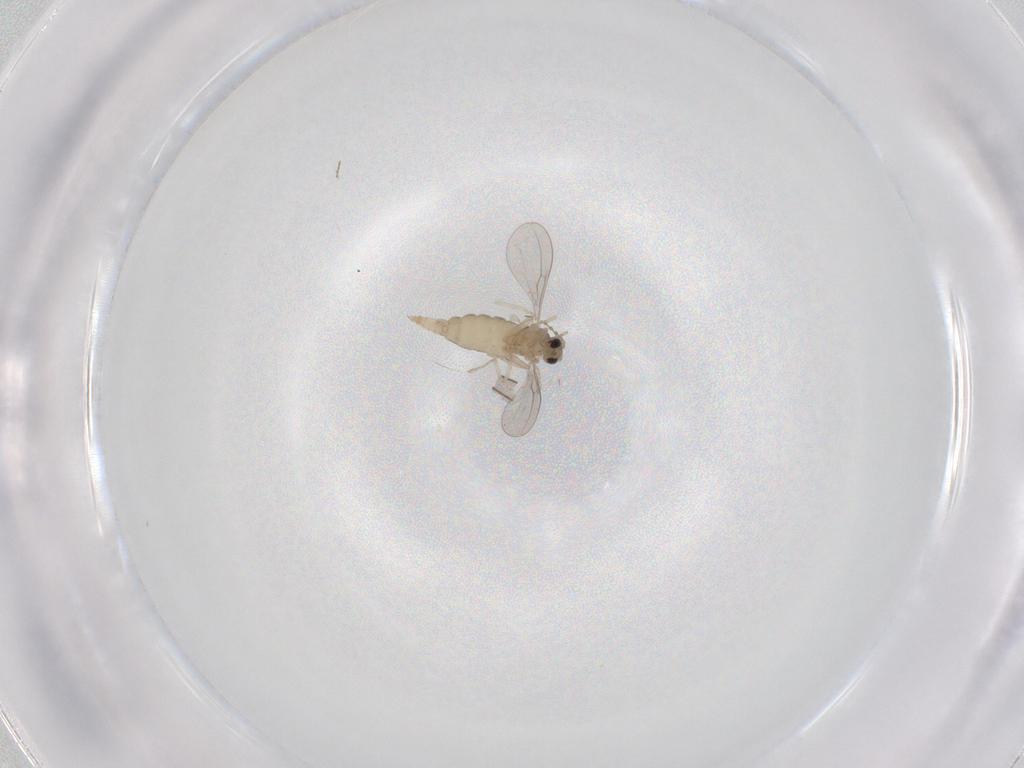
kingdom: Animalia
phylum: Arthropoda
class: Insecta
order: Diptera
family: Cecidomyiidae
